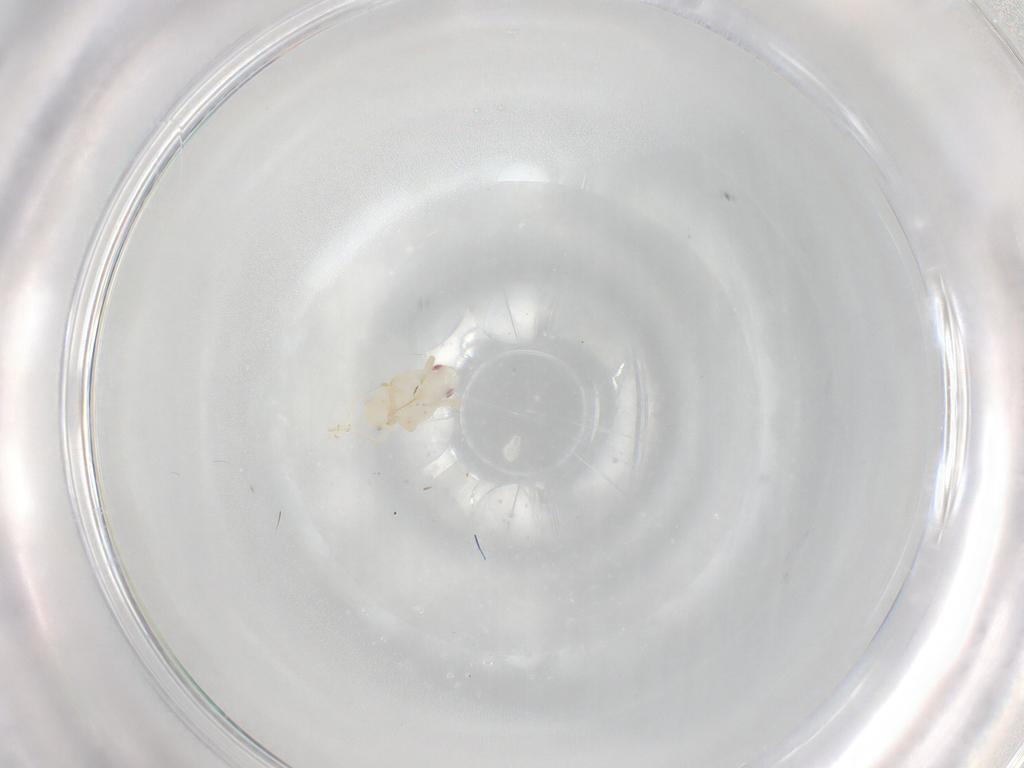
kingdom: Animalia
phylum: Arthropoda
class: Insecta
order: Hemiptera
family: Flatidae
